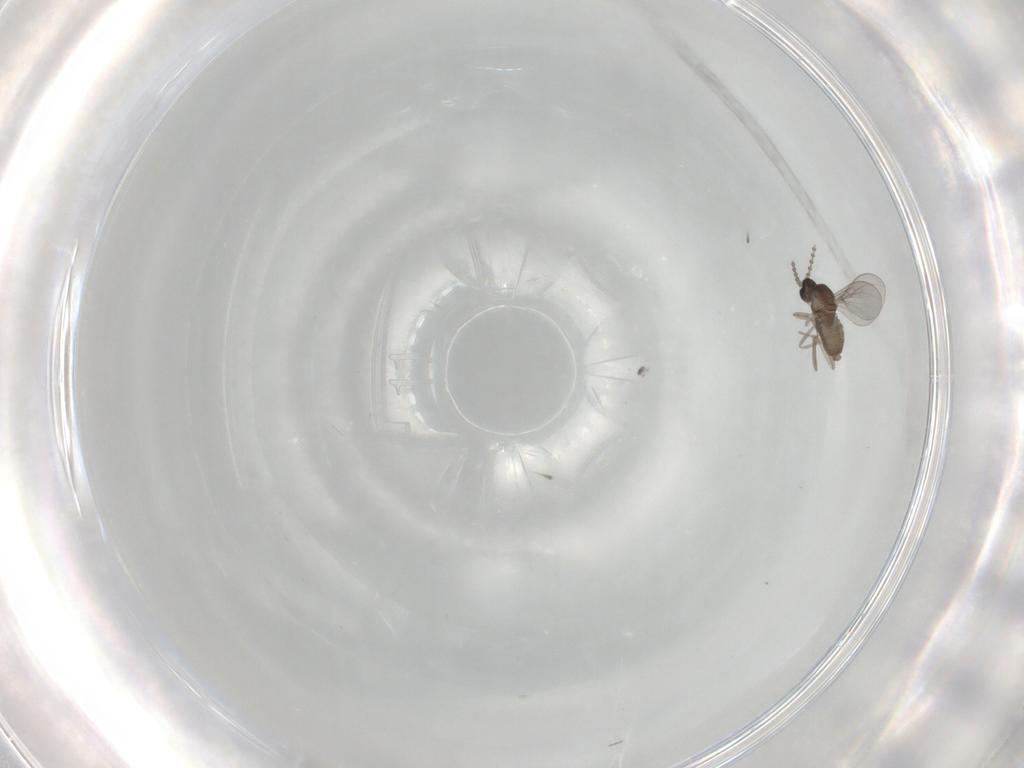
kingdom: Animalia
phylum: Arthropoda
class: Insecta
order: Diptera
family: Cecidomyiidae
